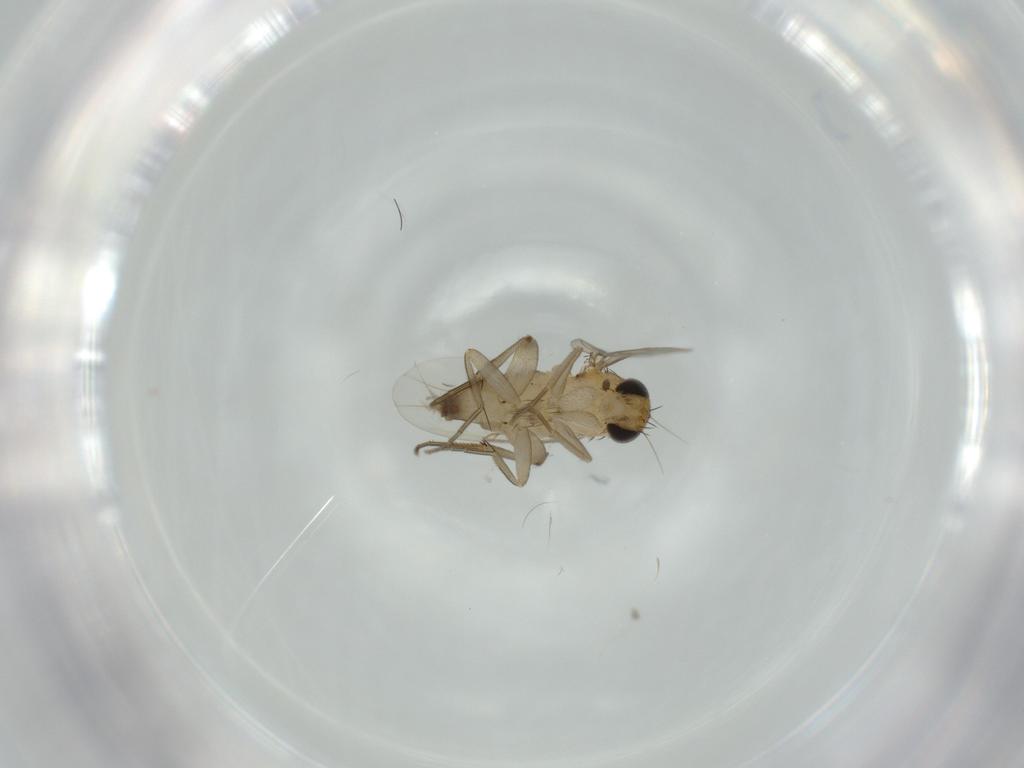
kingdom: Animalia
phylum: Arthropoda
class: Insecta
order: Diptera
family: Phoridae
